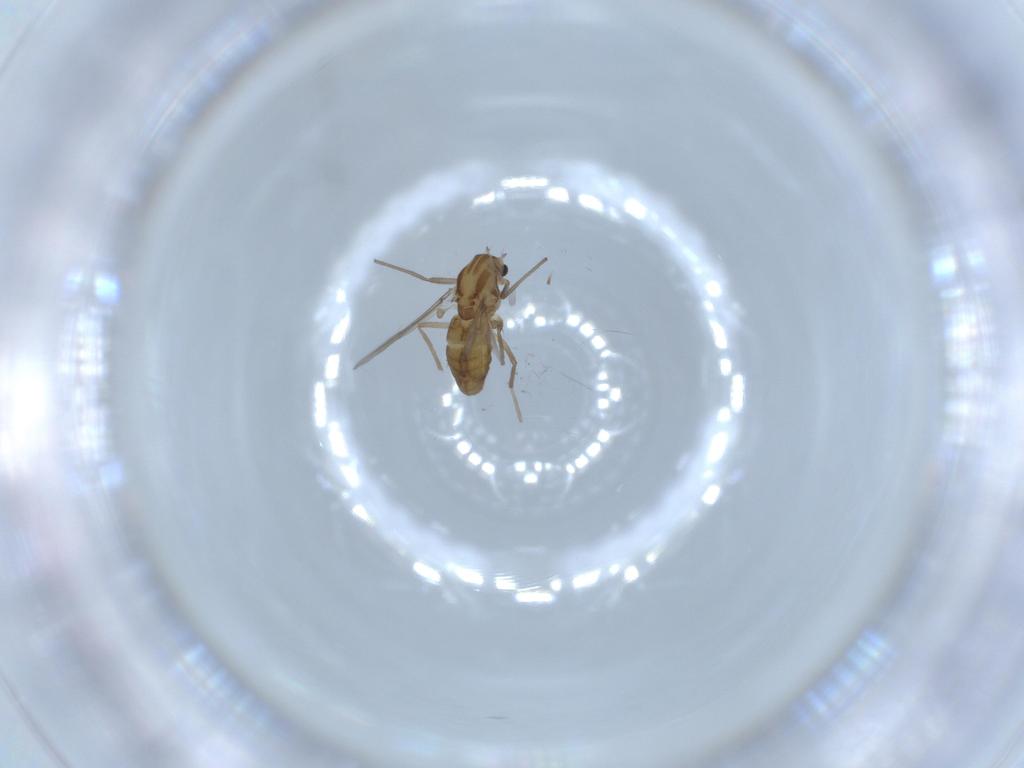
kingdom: Animalia
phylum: Arthropoda
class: Insecta
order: Diptera
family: Chironomidae
